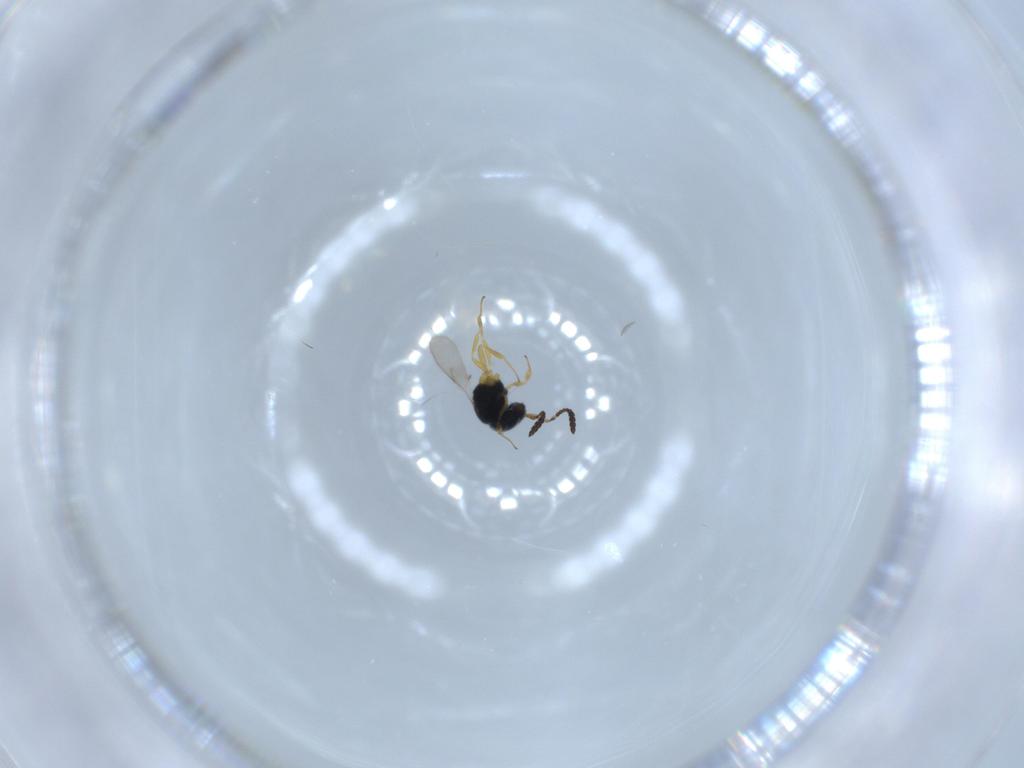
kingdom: Animalia
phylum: Arthropoda
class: Insecta
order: Hymenoptera
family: Scelionidae
